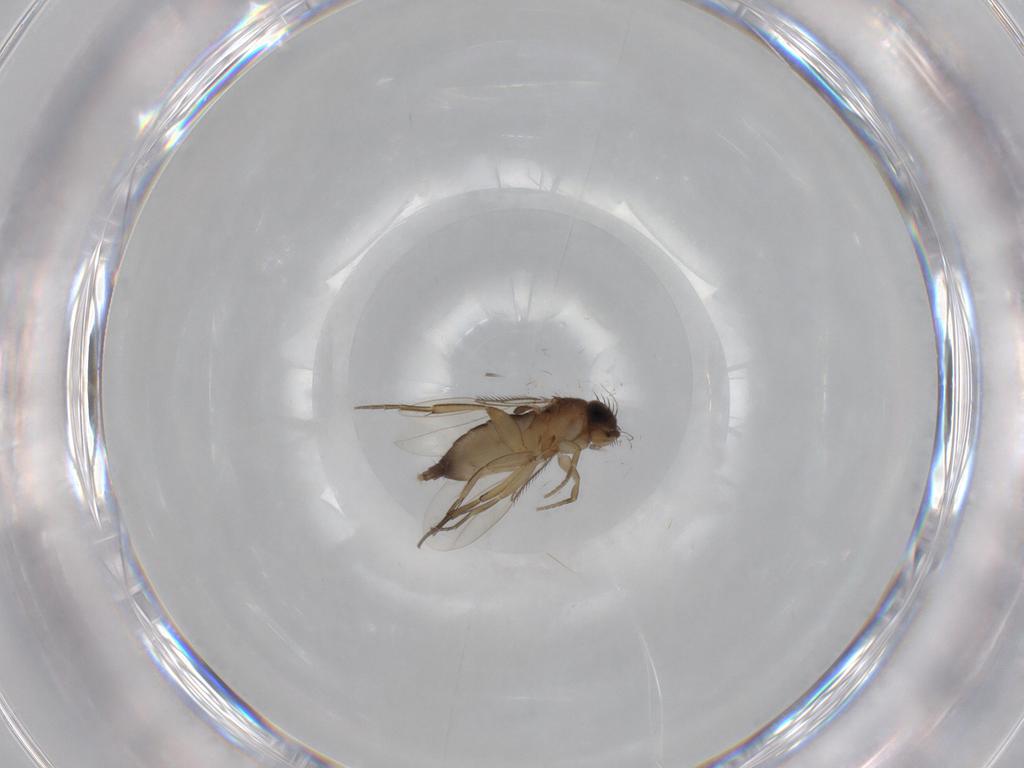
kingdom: Animalia
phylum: Arthropoda
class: Insecta
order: Diptera
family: Phoridae
